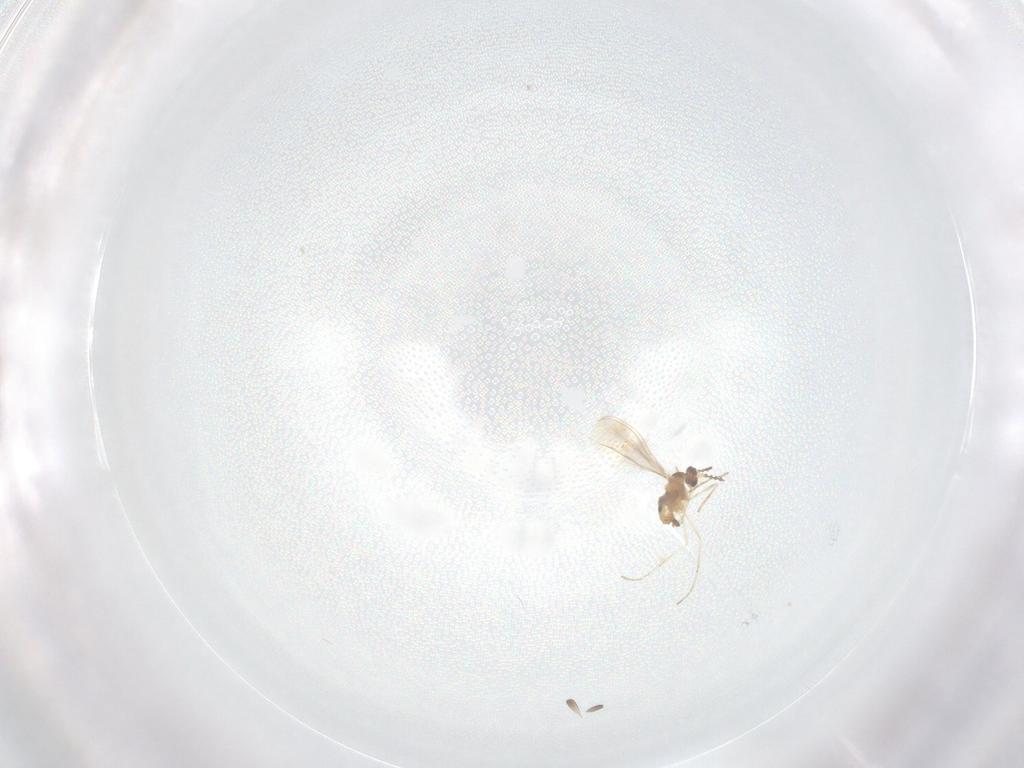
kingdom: Animalia
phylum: Arthropoda
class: Insecta
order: Diptera
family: Cecidomyiidae
